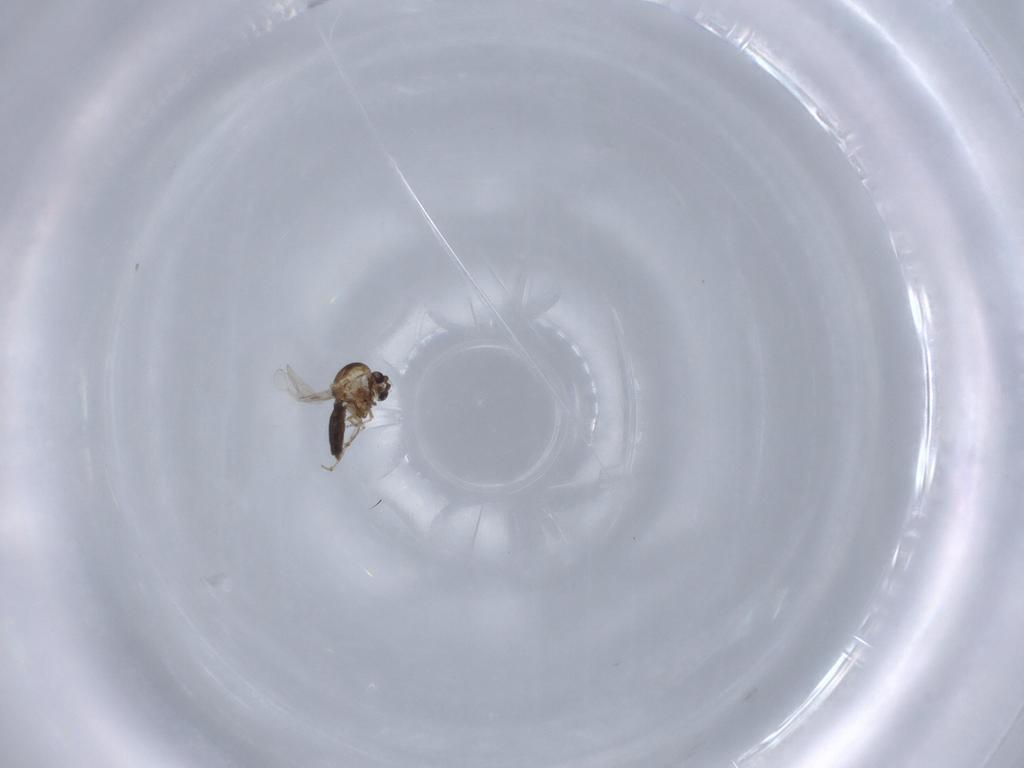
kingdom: Animalia
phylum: Arthropoda
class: Insecta
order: Diptera
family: Ceratopogonidae
